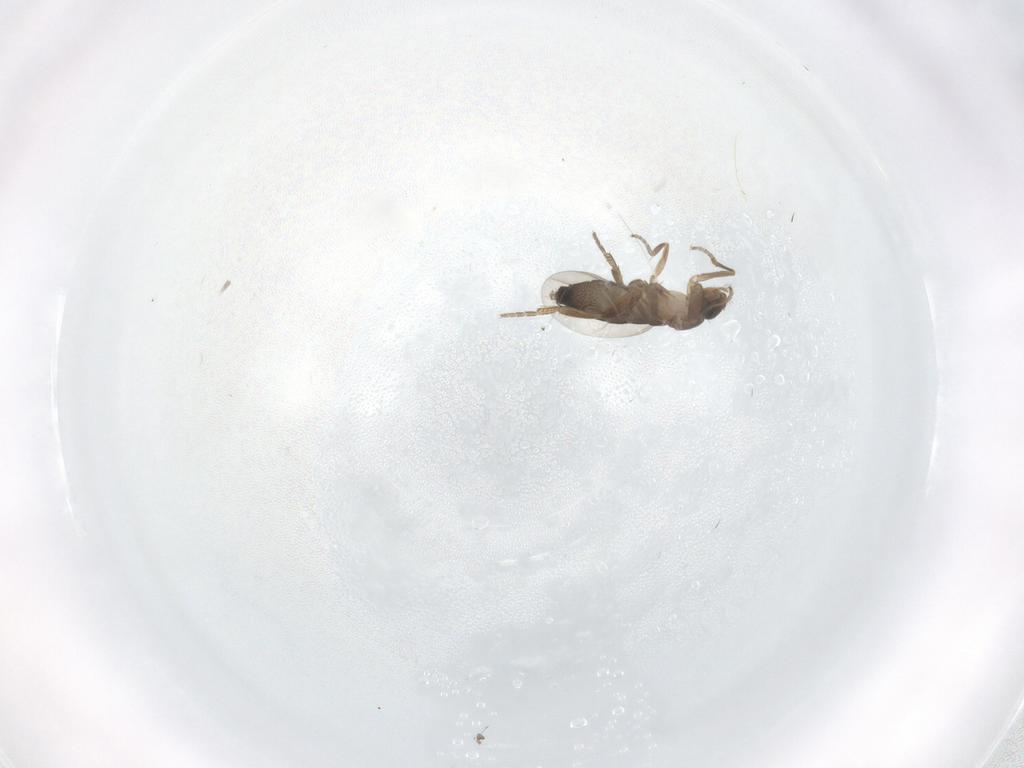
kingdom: Animalia
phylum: Arthropoda
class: Insecta
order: Diptera
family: Phoridae
